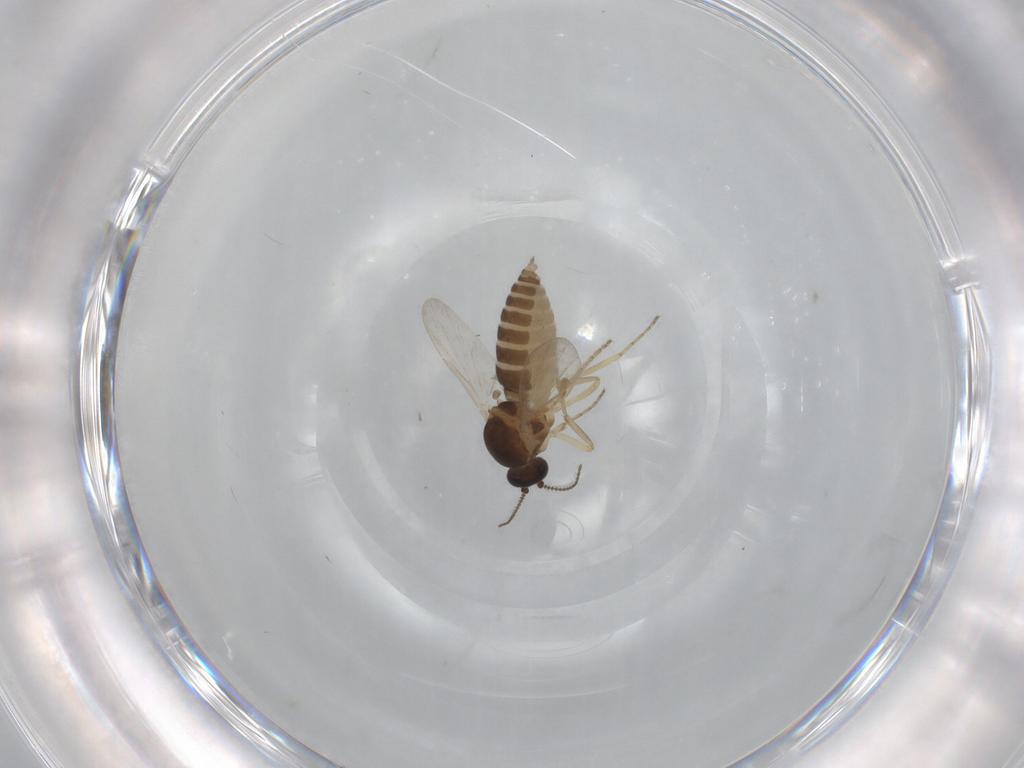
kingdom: Animalia
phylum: Arthropoda
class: Insecta
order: Diptera
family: Ceratopogonidae
